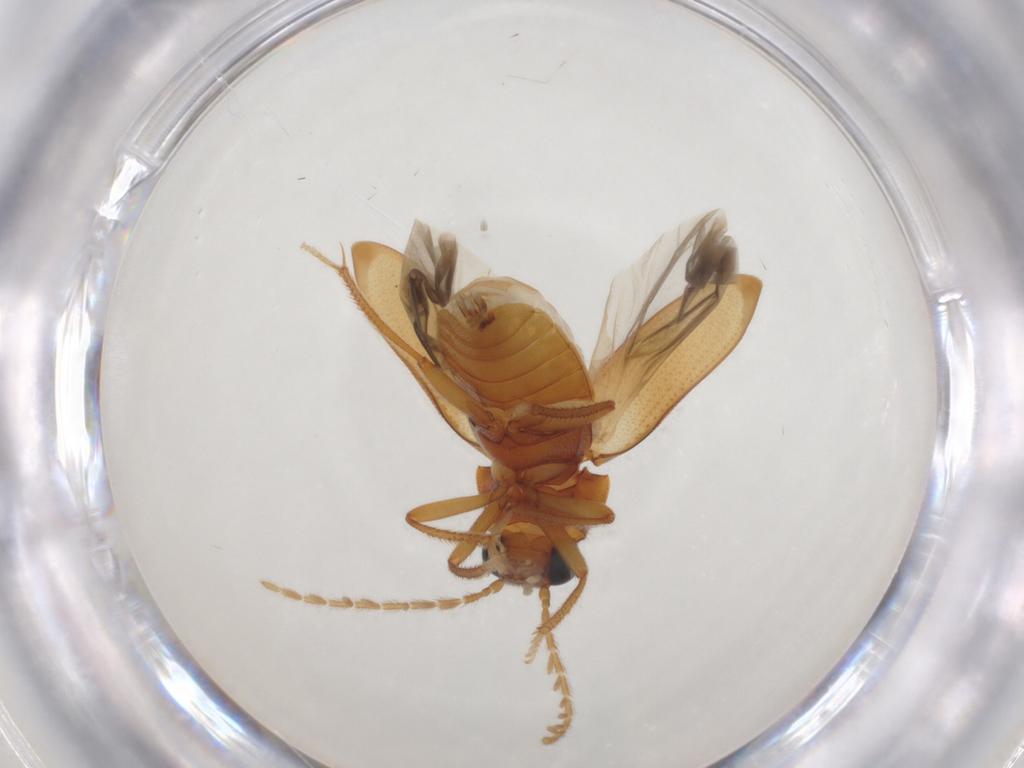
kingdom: Animalia
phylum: Arthropoda
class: Insecta
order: Coleoptera
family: Ptilodactylidae
